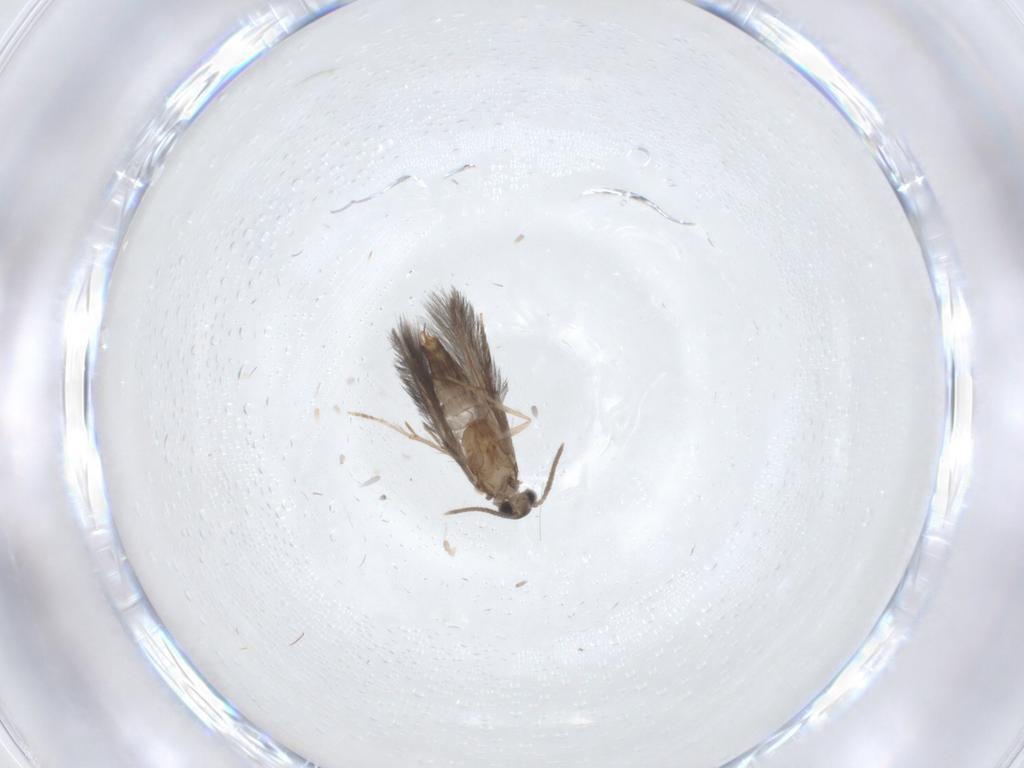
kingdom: Animalia
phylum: Arthropoda
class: Insecta
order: Trichoptera
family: Hydroptilidae
